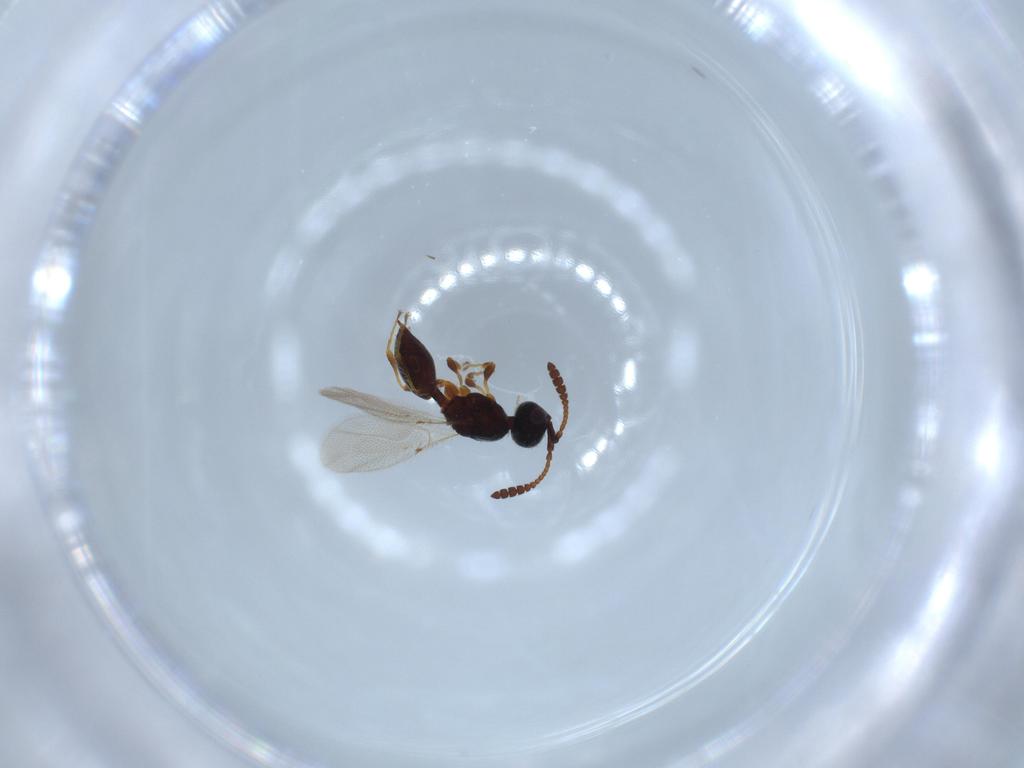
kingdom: Animalia
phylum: Arthropoda
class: Insecta
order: Hymenoptera
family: Diapriidae
